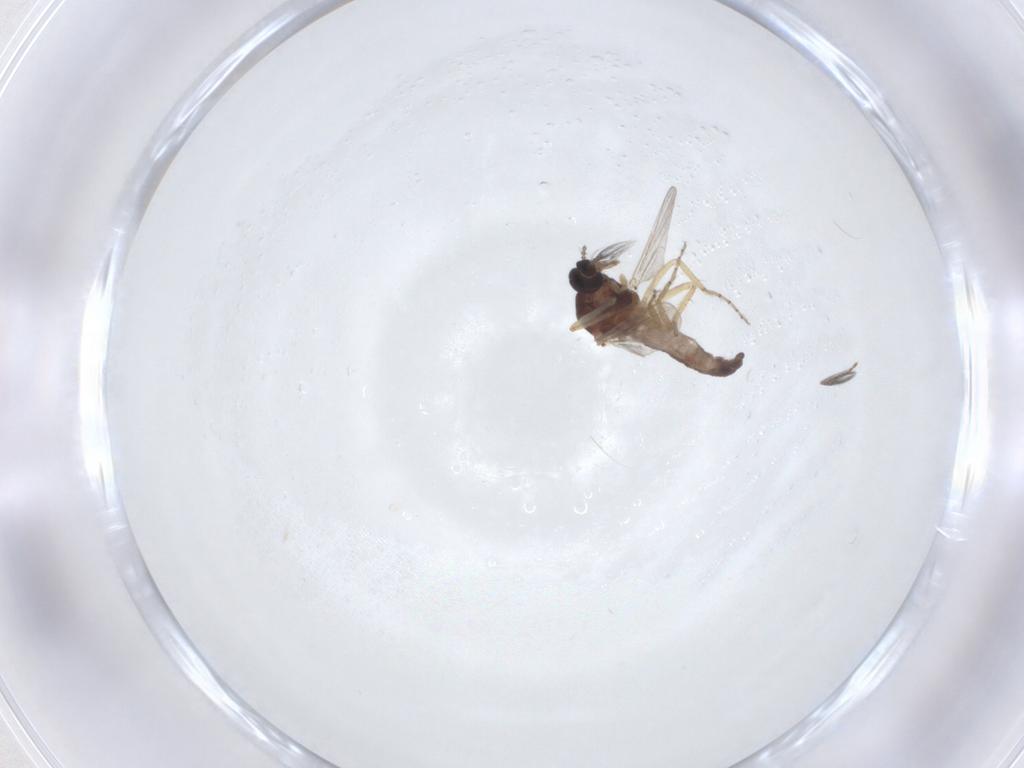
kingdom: Animalia
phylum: Arthropoda
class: Insecta
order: Diptera
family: Ceratopogonidae
